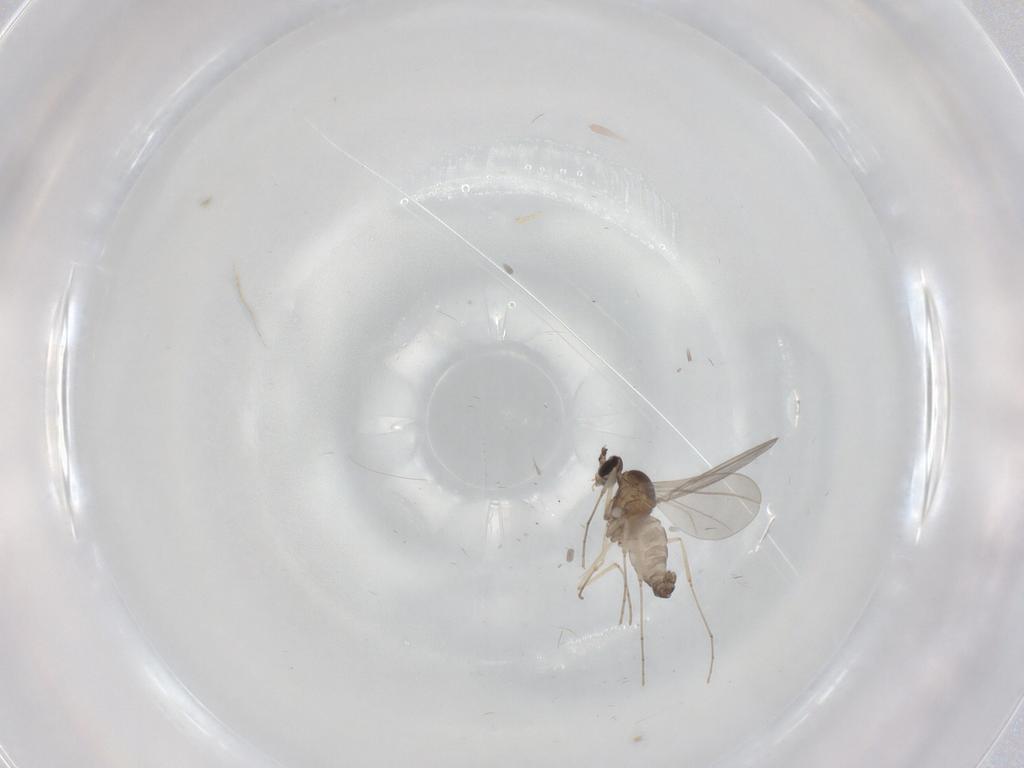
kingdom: Animalia
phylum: Arthropoda
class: Insecta
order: Diptera
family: Cecidomyiidae
